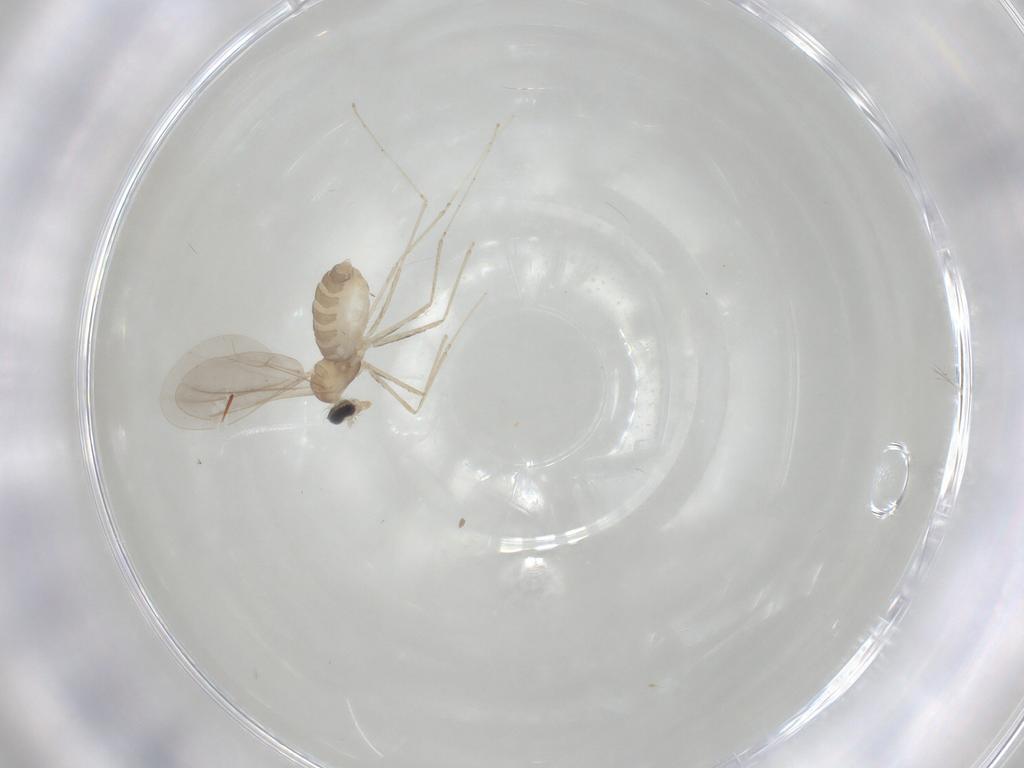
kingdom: Animalia
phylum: Arthropoda
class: Insecta
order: Diptera
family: Cecidomyiidae
